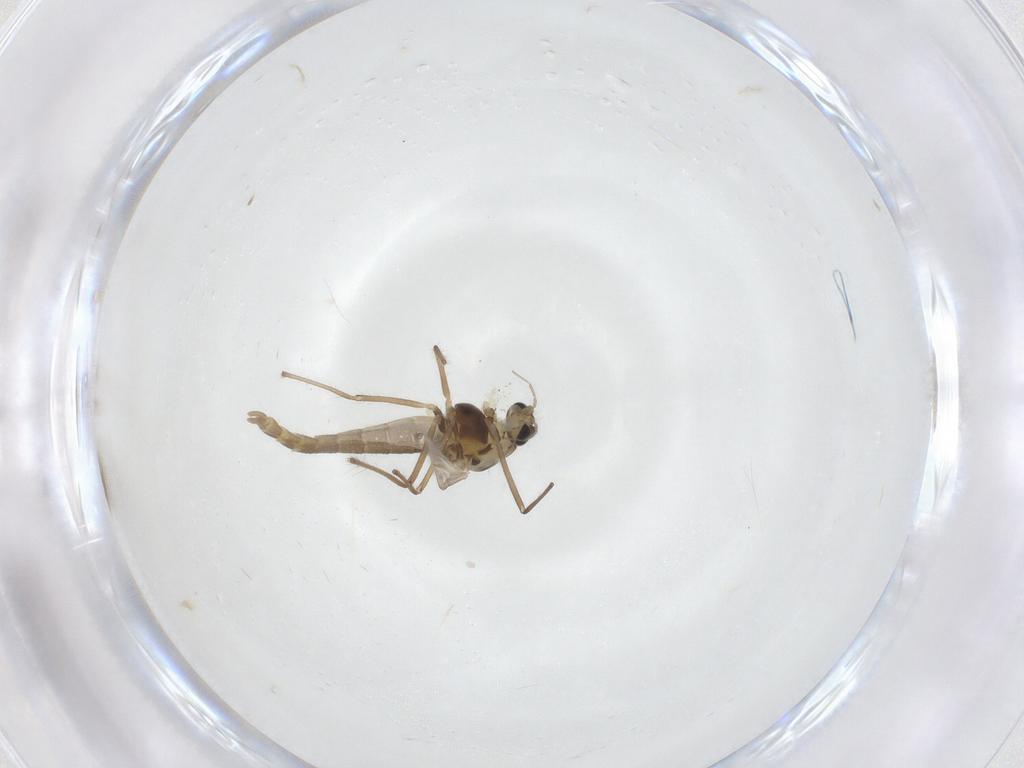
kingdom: Animalia
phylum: Arthropoda
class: Insecta
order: Diptera
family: Chironomidae
